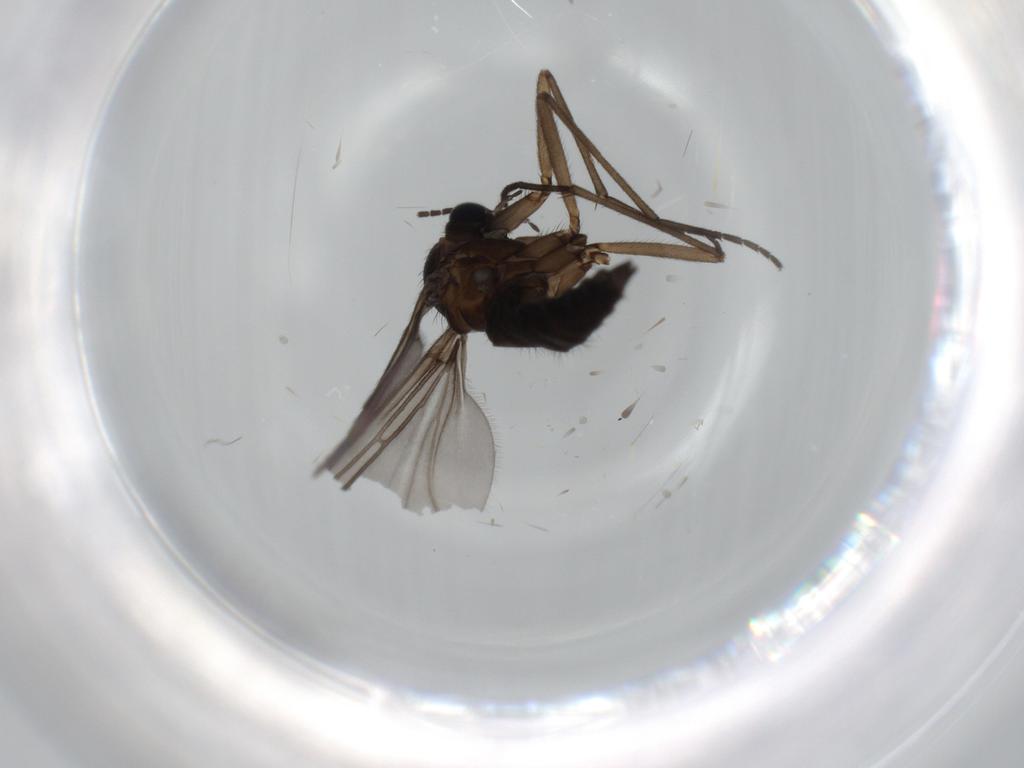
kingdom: Animalia
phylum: Arthropoda
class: Insecta
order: Diptera
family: Sciaridae
